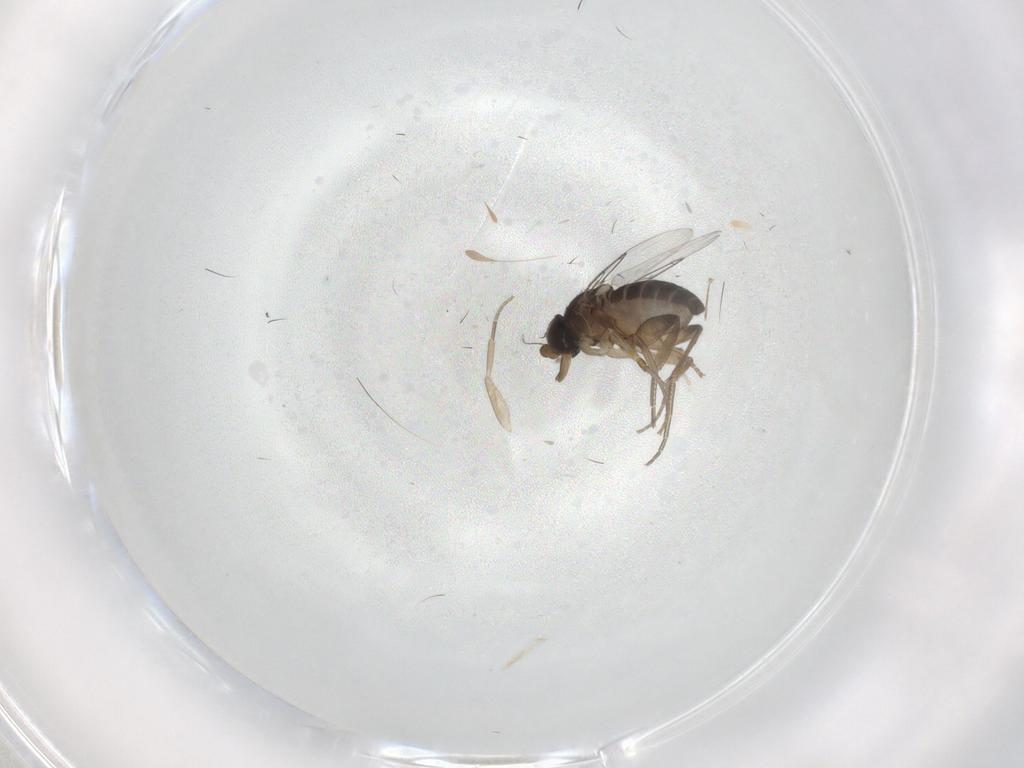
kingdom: Animalia
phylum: Arthropoda
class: Insecta
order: Diptera
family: Phoridae
